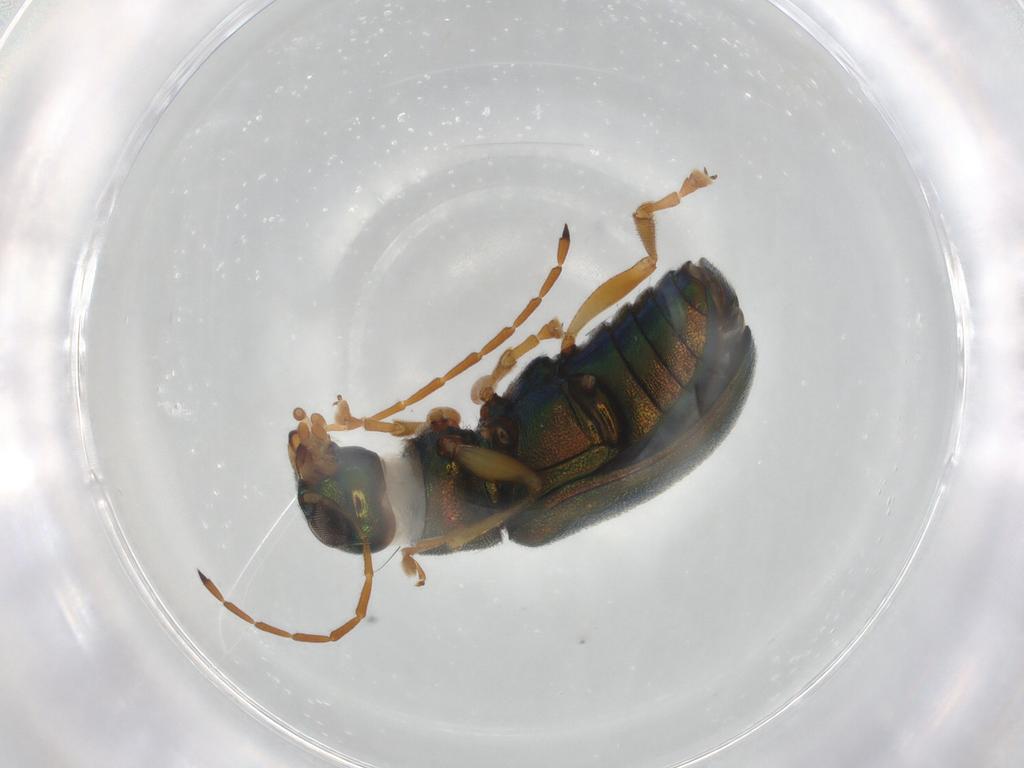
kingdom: Animalia
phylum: Arthropoda
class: Insecta
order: Coleoptera
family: Chrysomelidae
